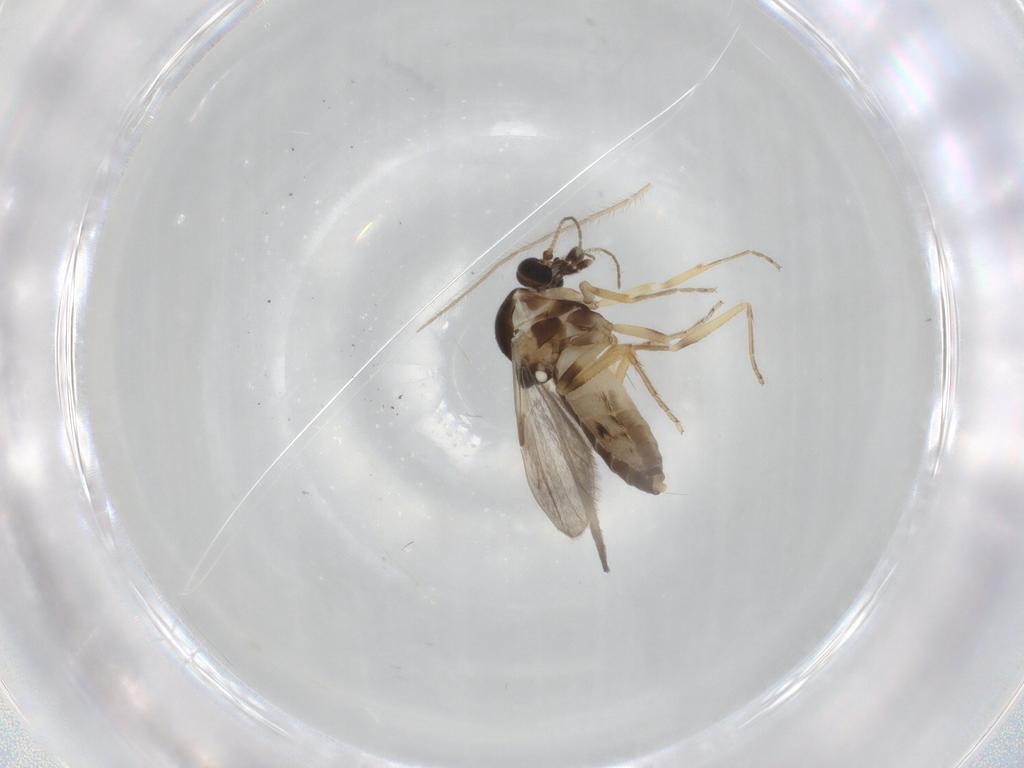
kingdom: Animalia
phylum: Arthropoda
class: Insecta
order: Diptera
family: Ceratopogonidae
